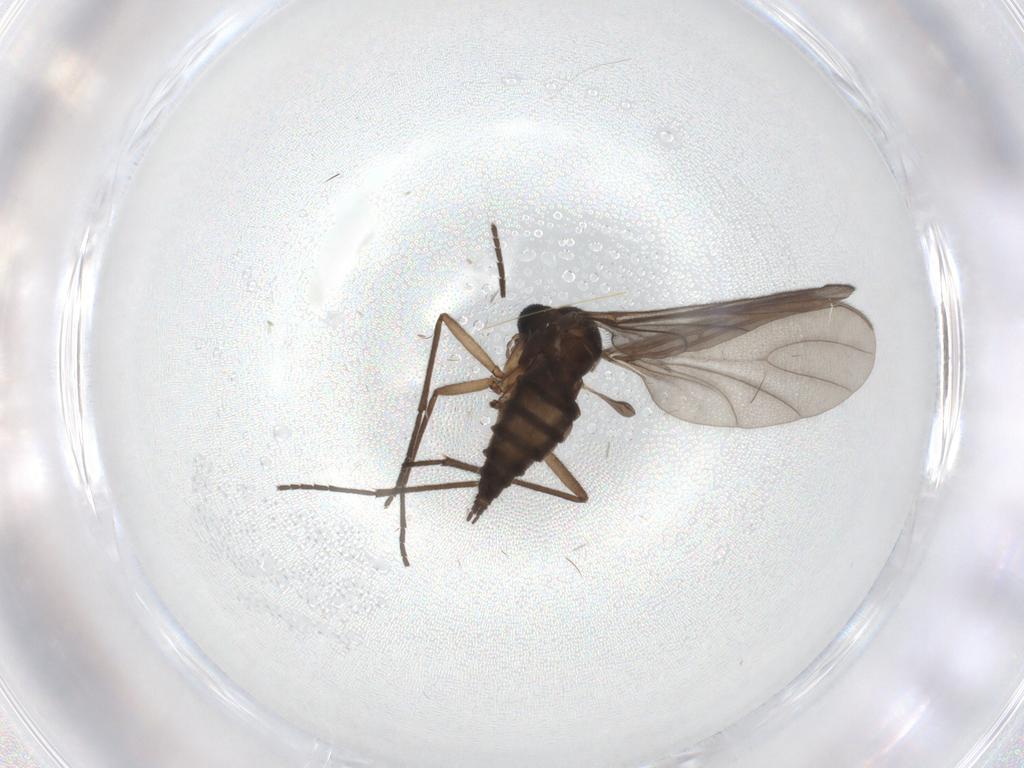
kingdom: Animalia
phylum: Arthropoda
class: Insecta
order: Diptera
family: Sciaridae
